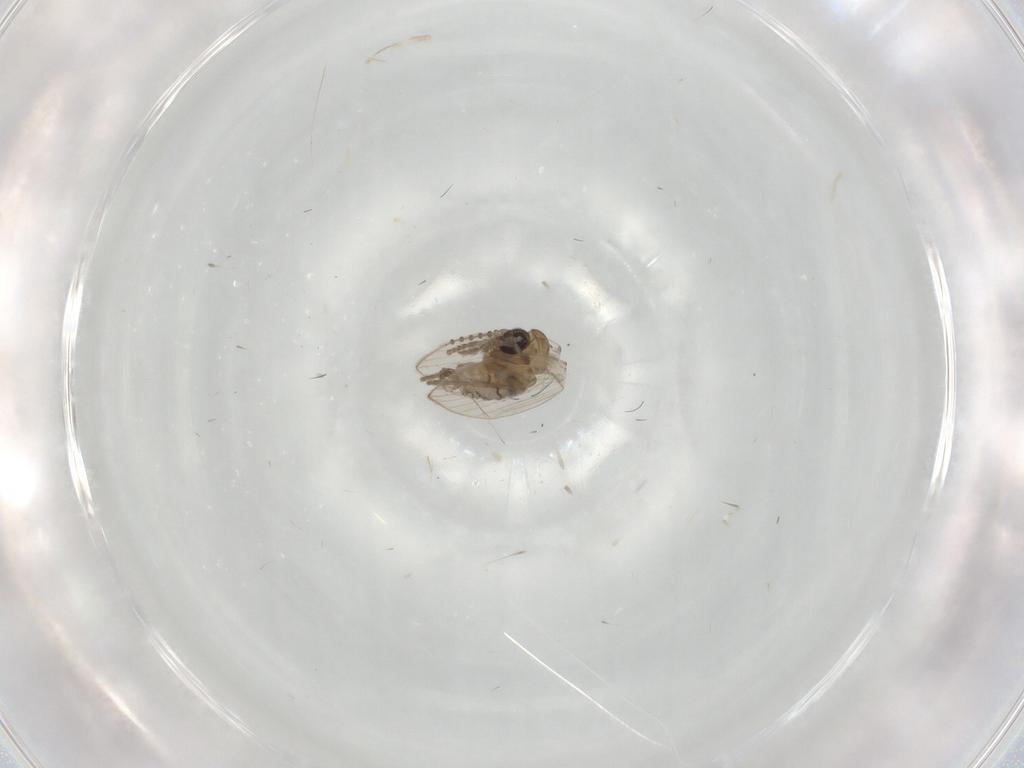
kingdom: Animalia
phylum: Arthropoda
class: Insecta
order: Diptera
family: Psychodidae
